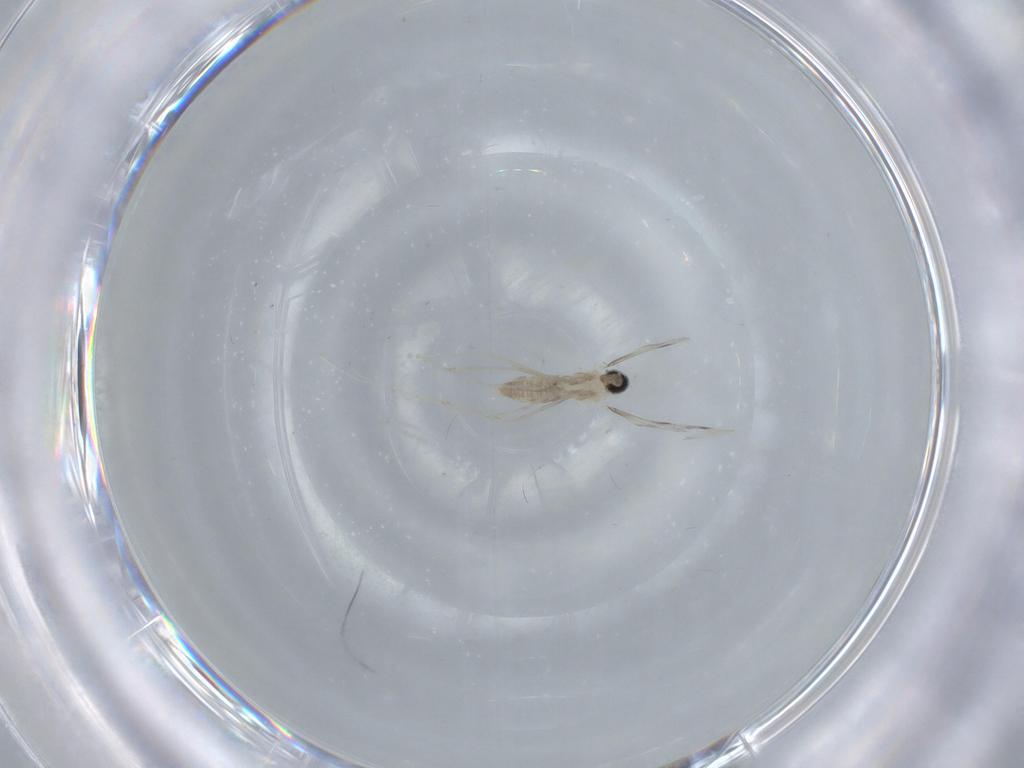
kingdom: Animalia
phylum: Arthropoda
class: Insecta
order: Diptera
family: Cecidomyiidae
